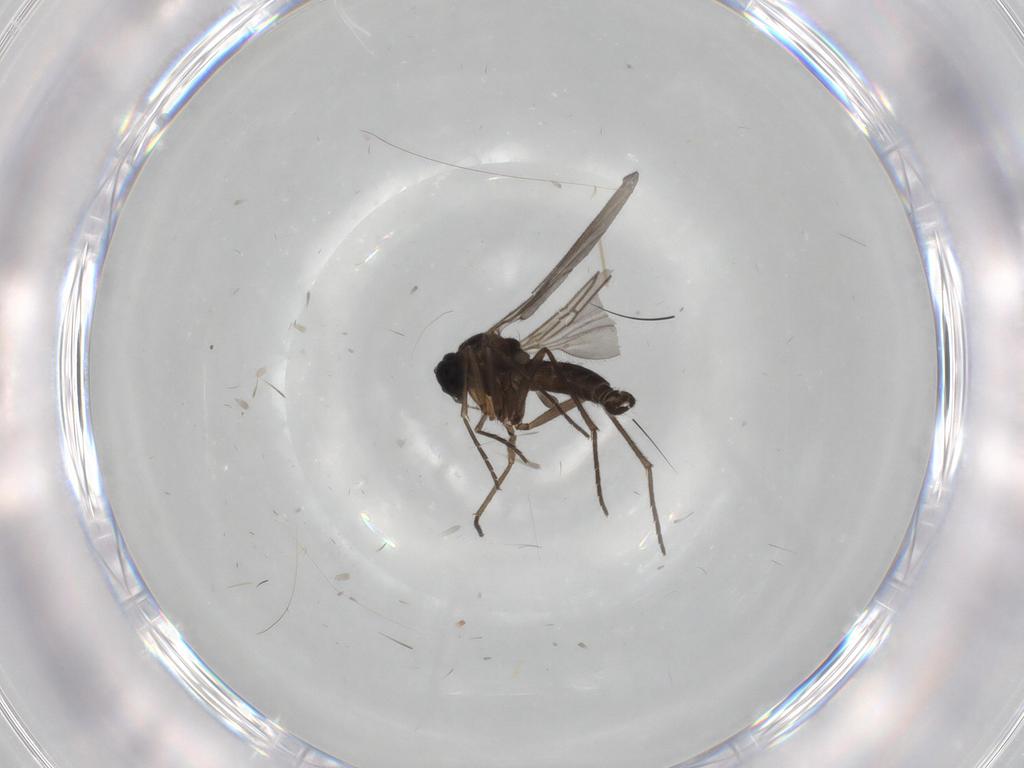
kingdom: Animalia
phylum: Arthropoda
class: Insecta
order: Diptera
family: Sciaridae
